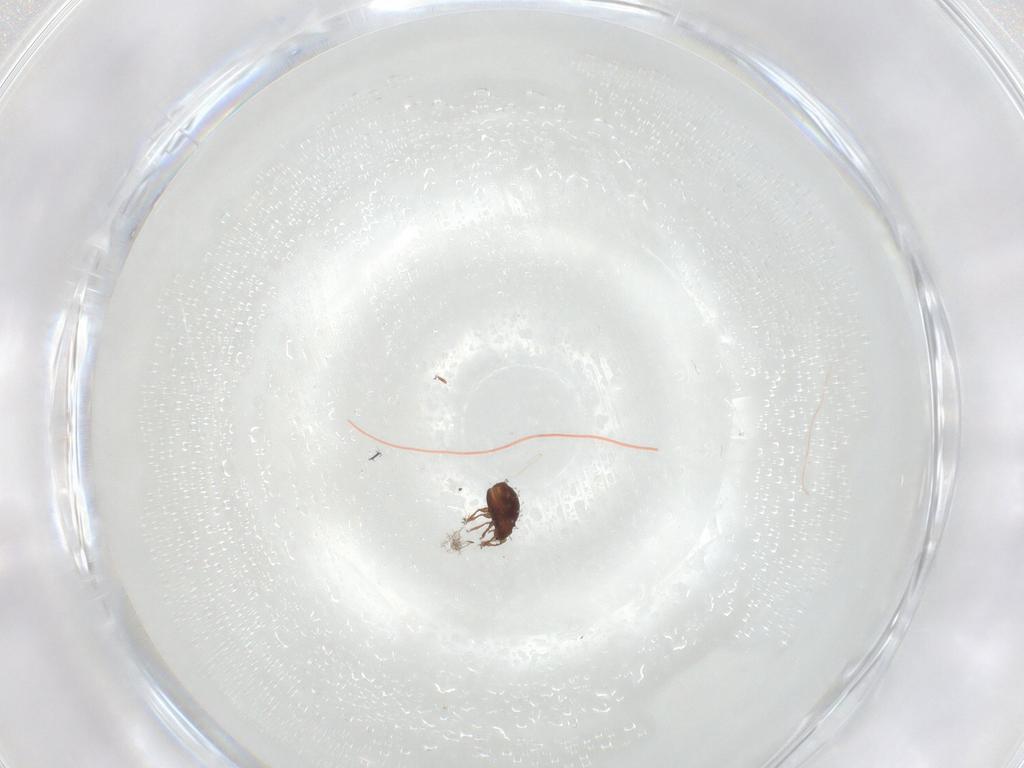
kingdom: Animalia
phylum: Arthropoda
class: Arachnida
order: Sarcoptiformes
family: Scheloribatidae
